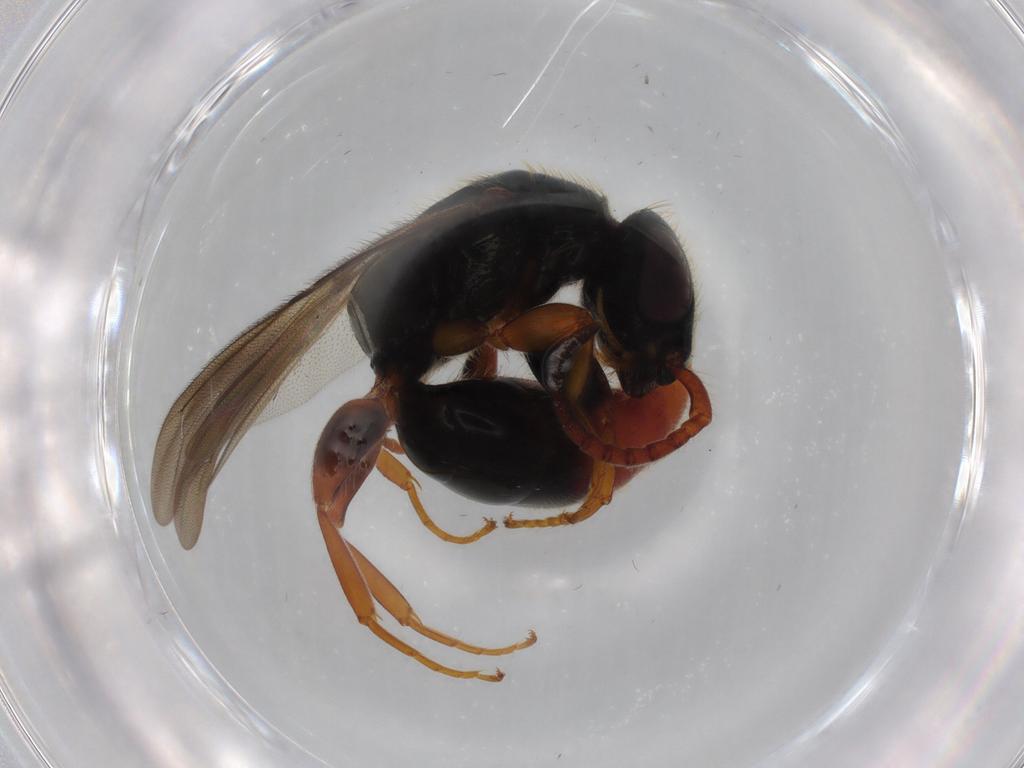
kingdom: Animalia
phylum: Arthropoda
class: Insecta
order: Hymenoptera
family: Bethylidae
